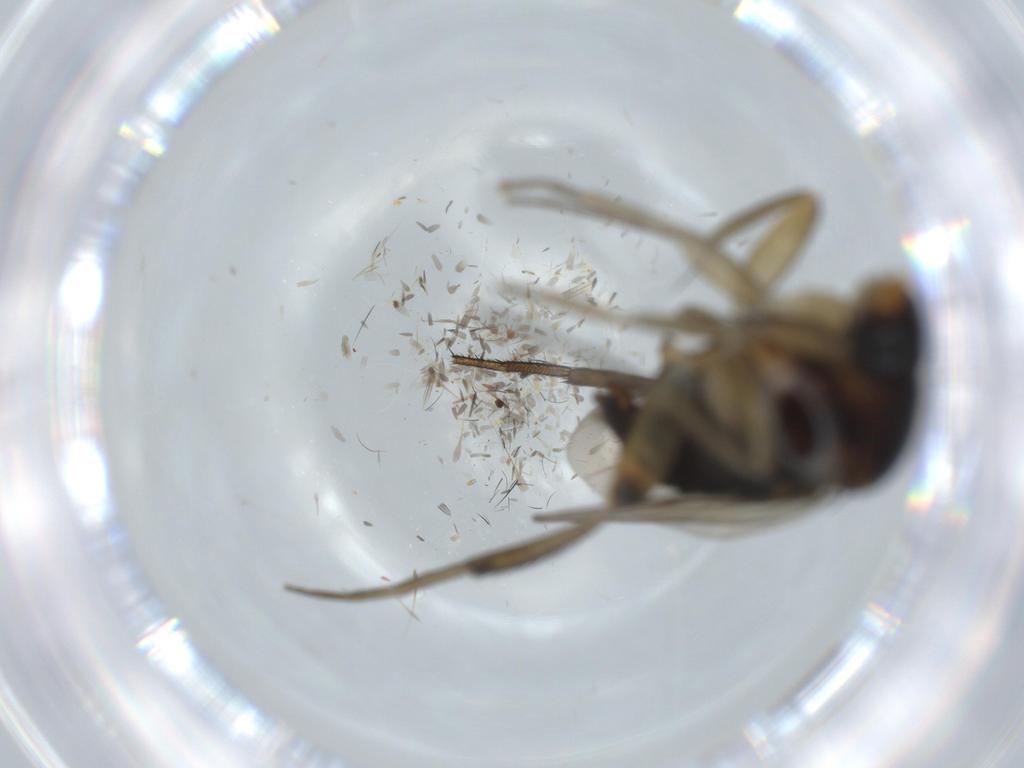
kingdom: Animalia
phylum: Arthropoda
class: Insecta
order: Diptera
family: Phoridae
